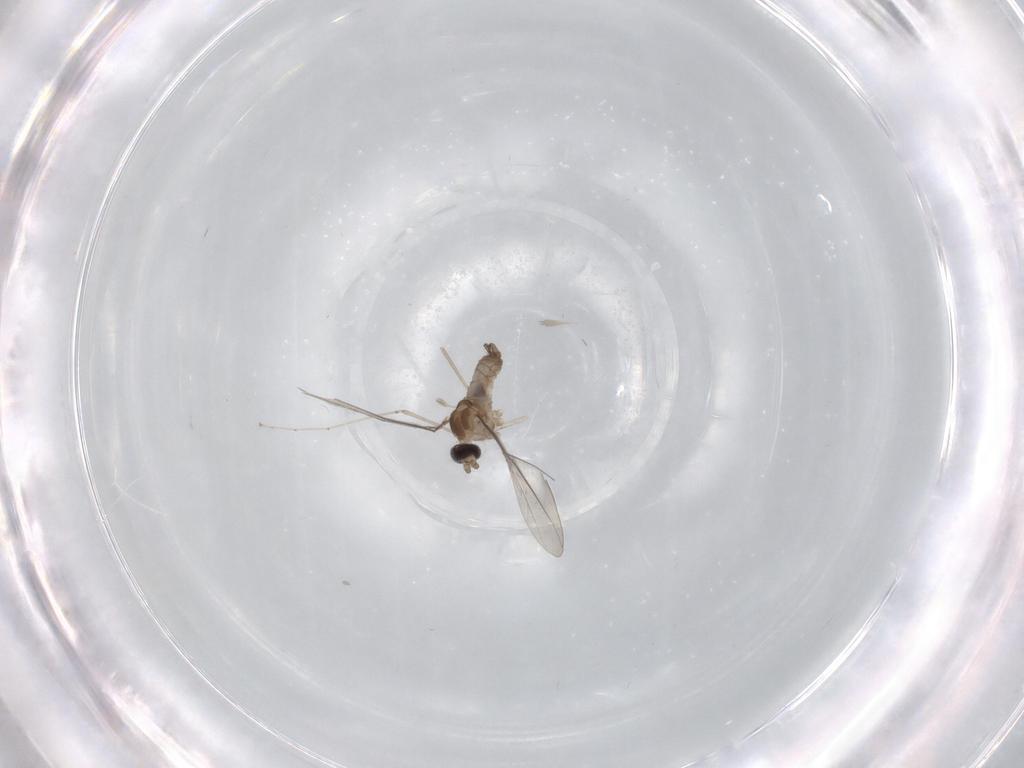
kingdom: Animalia
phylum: Arthropoda
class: Insecta
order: Diptera
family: Cecidomyiidae
